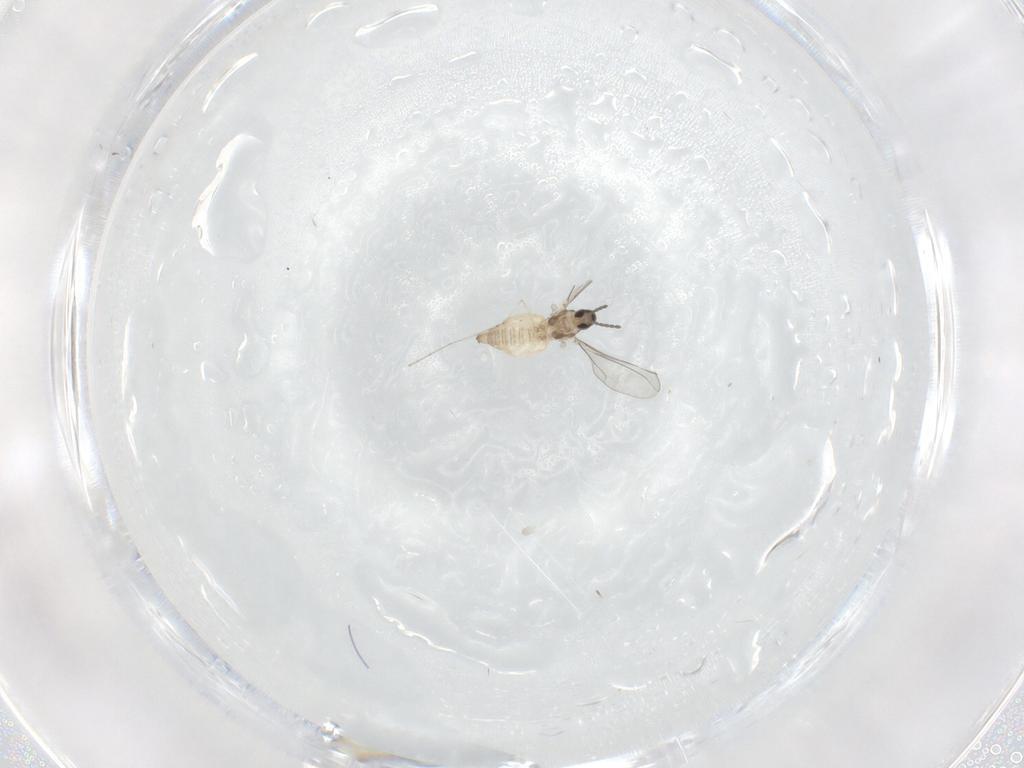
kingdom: Animalia
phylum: Arthropoda
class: Insecta
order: Diptera
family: Cecidomyiidae
